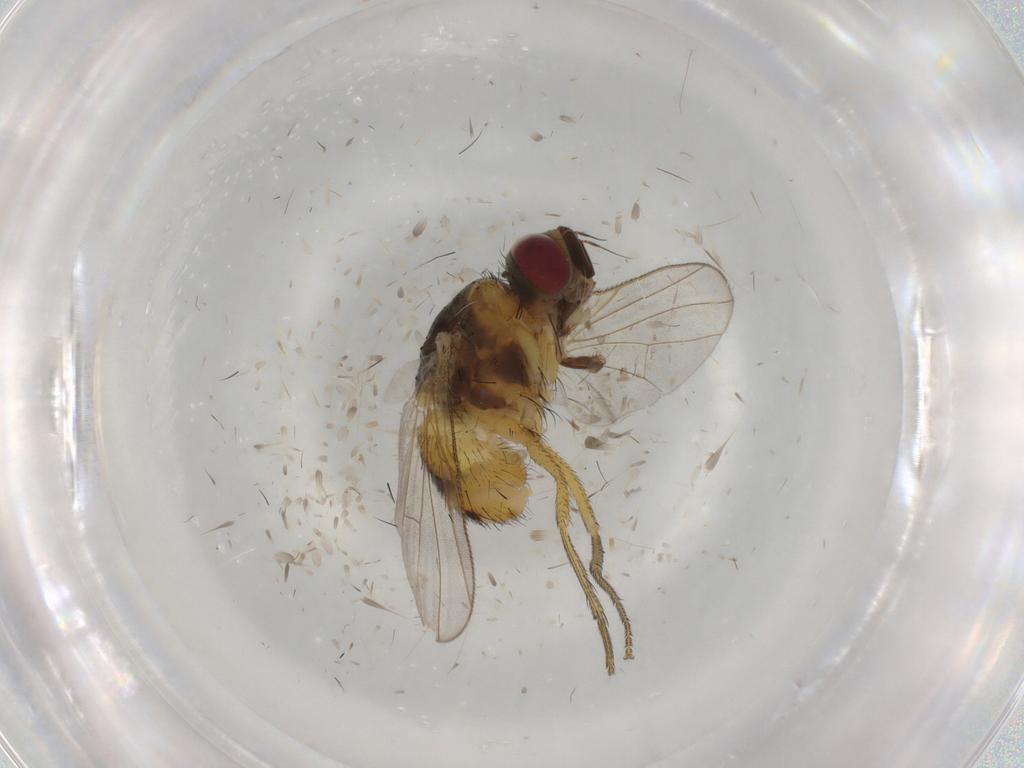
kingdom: Animalia
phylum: Arthropoda
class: Insecta
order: Diptera
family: Muscidae
